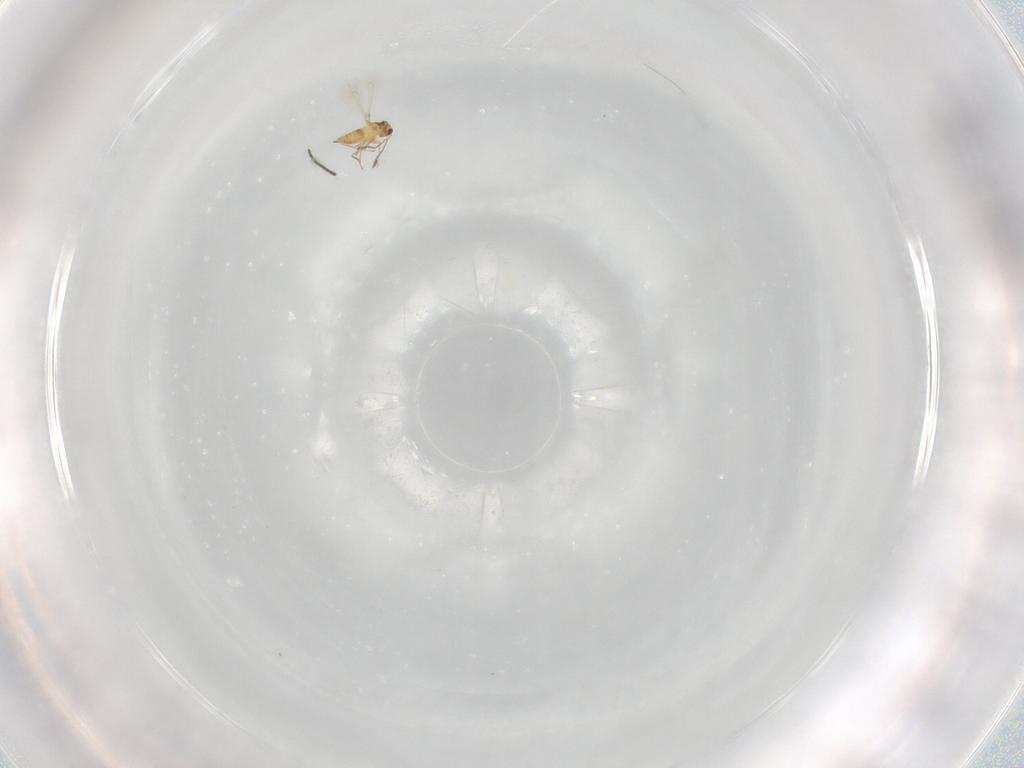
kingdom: Animalia
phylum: Arthropoda
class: Insecta
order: Hymenoptera
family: Mymaridae
